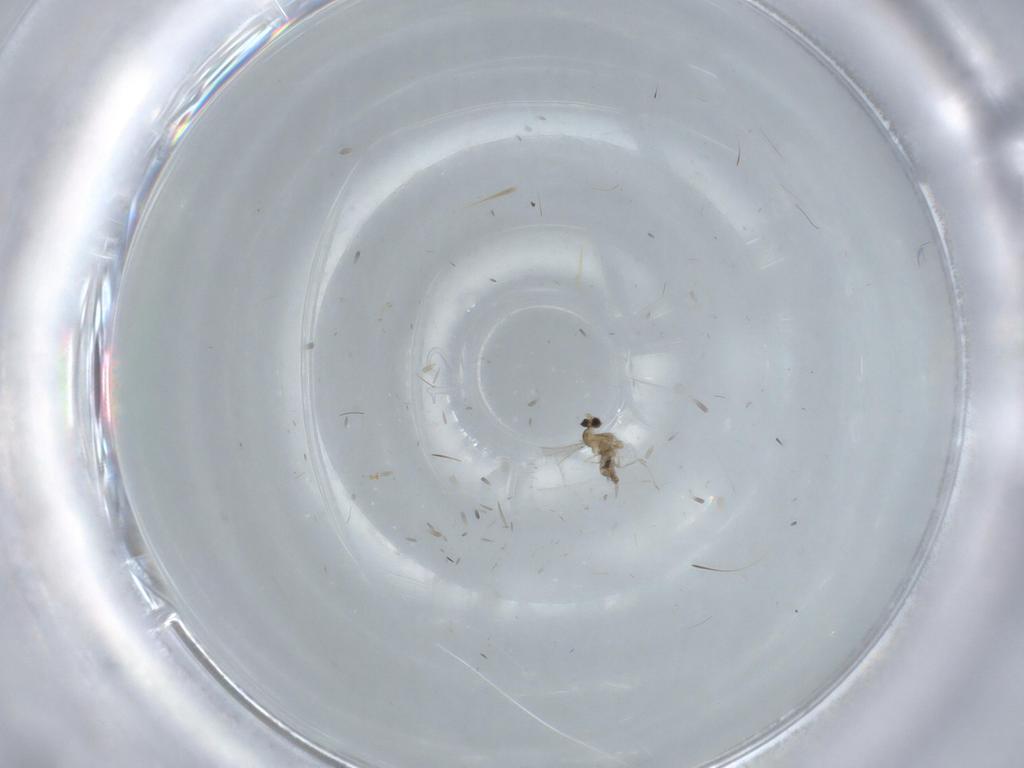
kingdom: Animalia
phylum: Arthropoda
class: Insecta
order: Diptera
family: Cecidomyiidae
